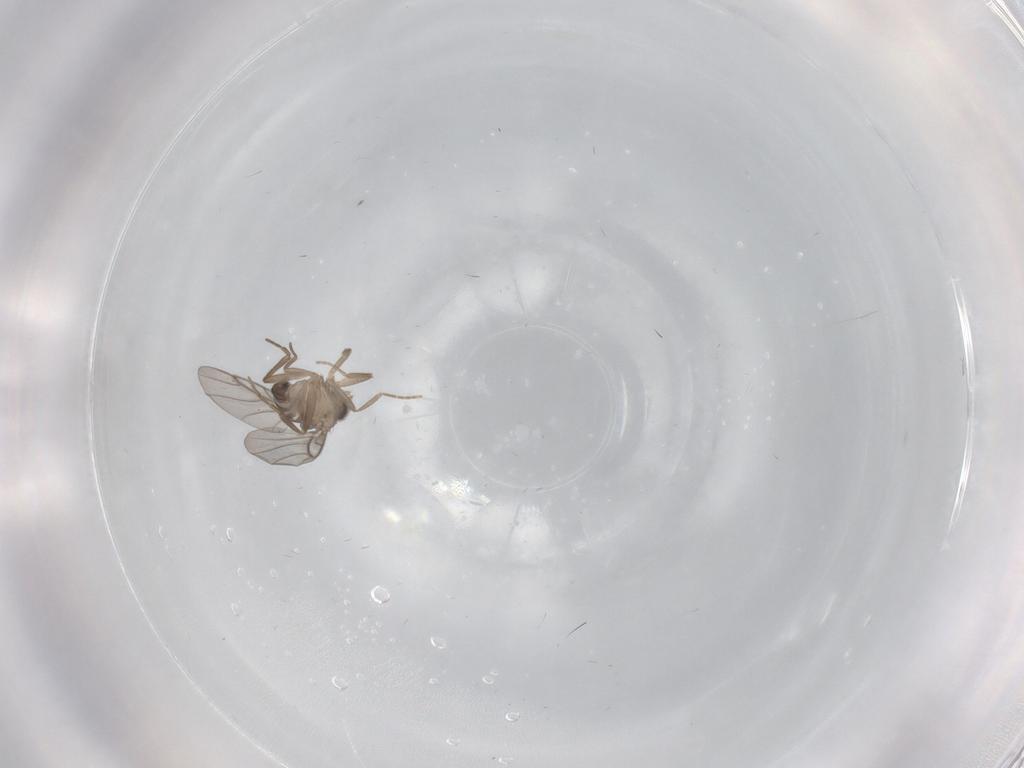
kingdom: Animalia
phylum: Arthropoda
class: Insecta
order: Diptera
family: Cecidomyiidae
